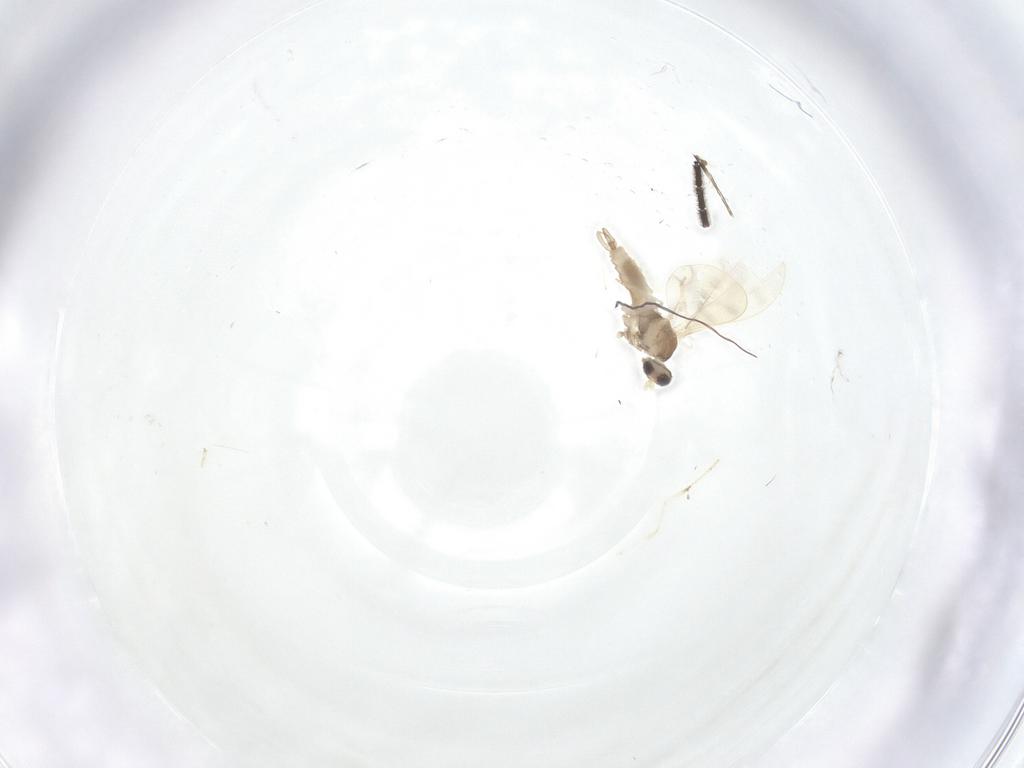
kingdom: Animalia
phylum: Arthropoda
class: Insecta
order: Diptera
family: Sciaridae
